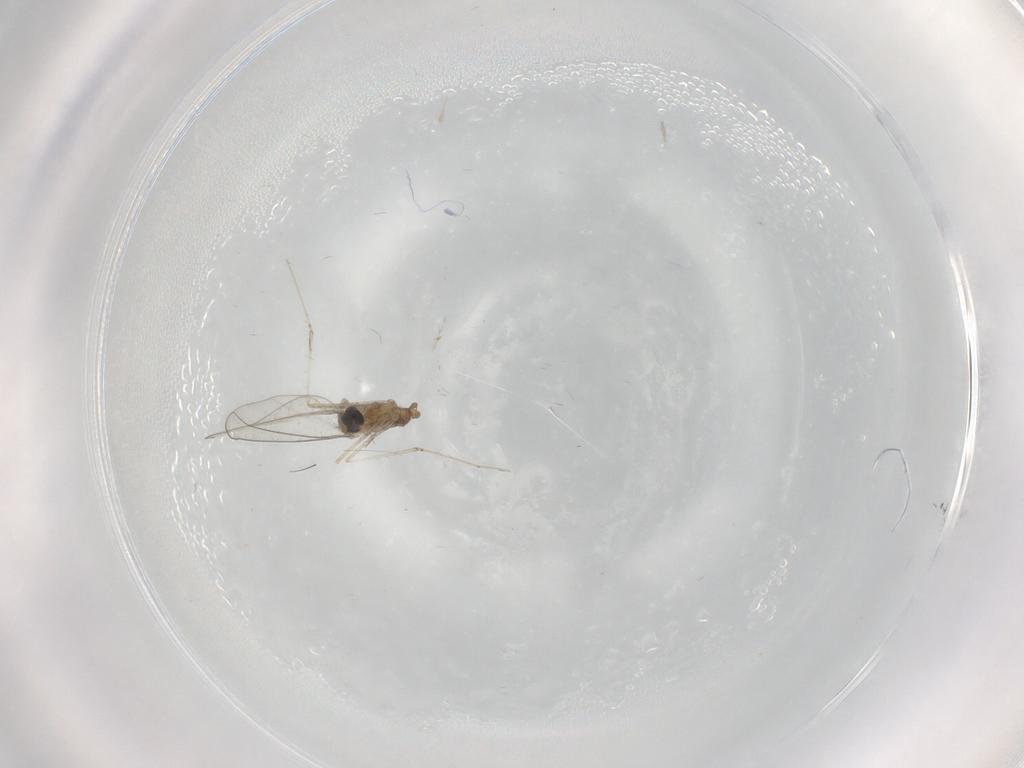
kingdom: Animalia
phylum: Arthropoda
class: Insecta
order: Diptera
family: Cecidomyiidae
